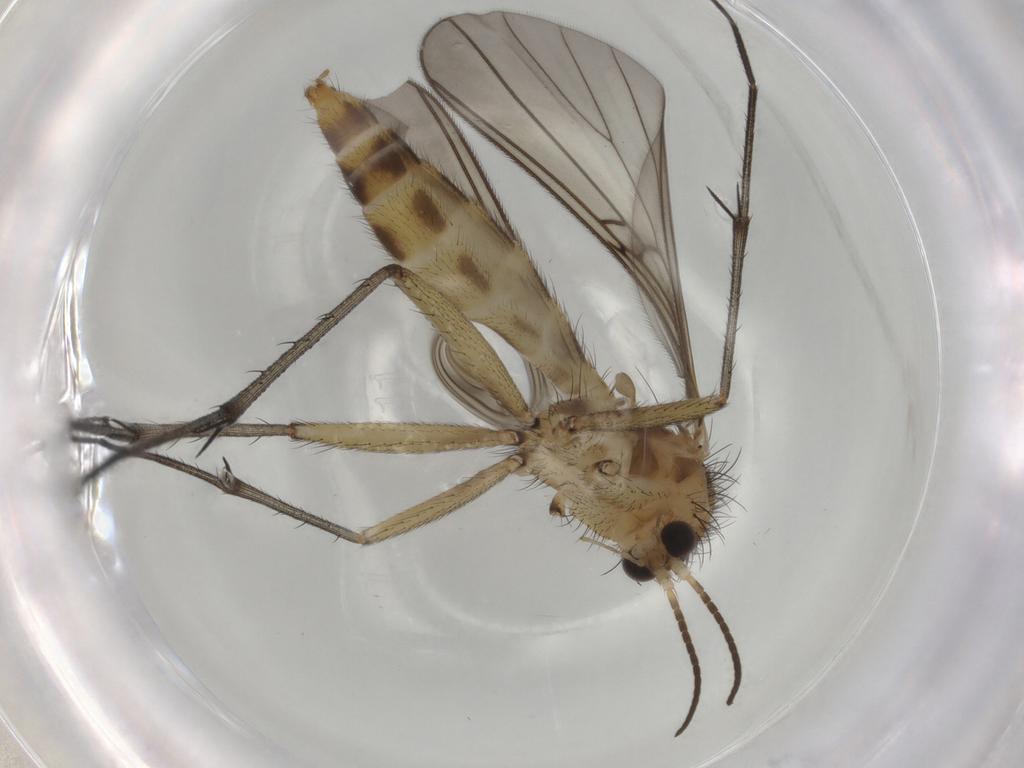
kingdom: Animalia
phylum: Arthropoda
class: Insecta
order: Diptera
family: Mycetophilidae
